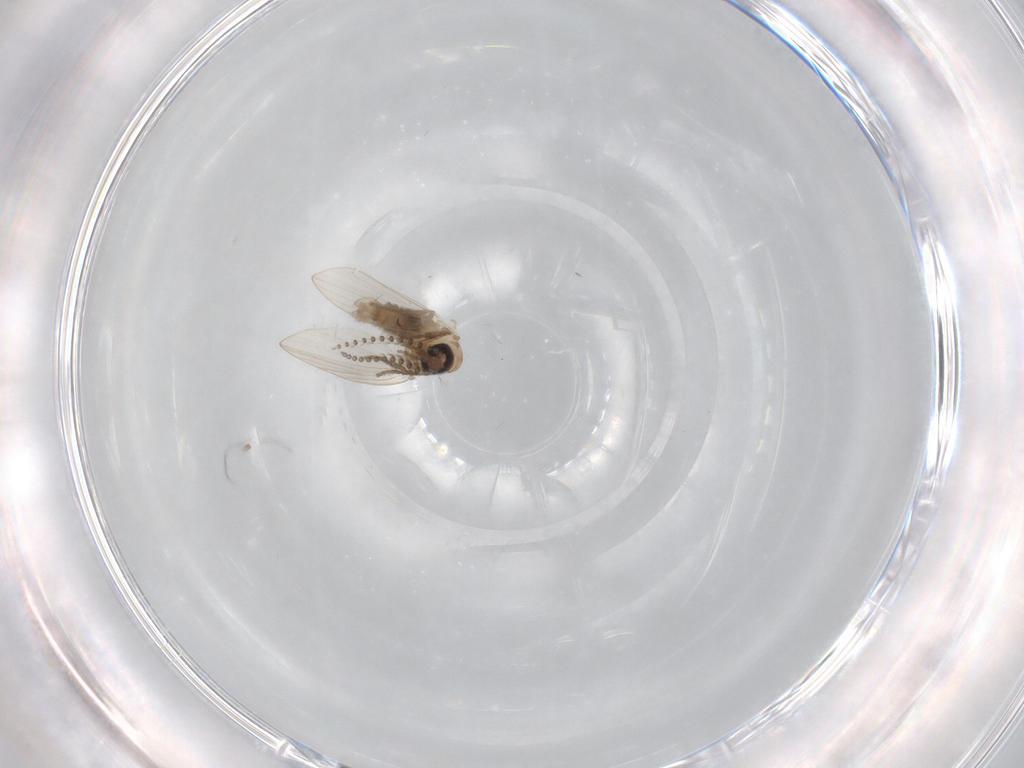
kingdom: Animalia
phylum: Arthropoda
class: Insecta
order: Diptera
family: Psychodidae
